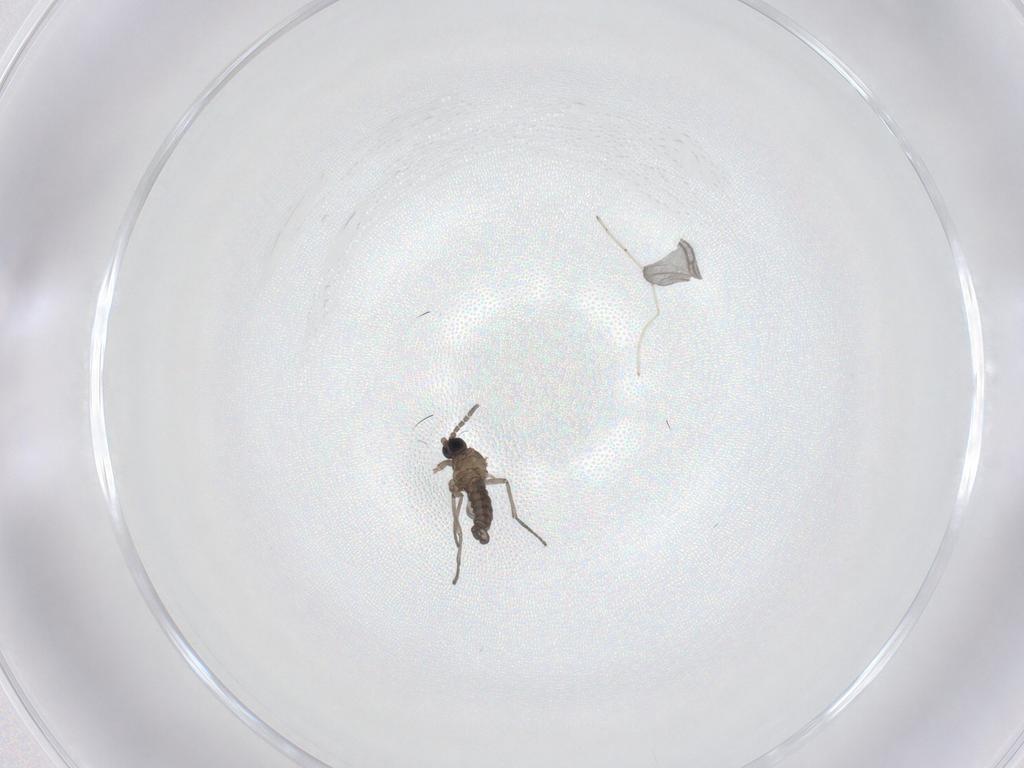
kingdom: Animalia
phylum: Arthropoda
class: Insecta
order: Diptera
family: Sciaridae
